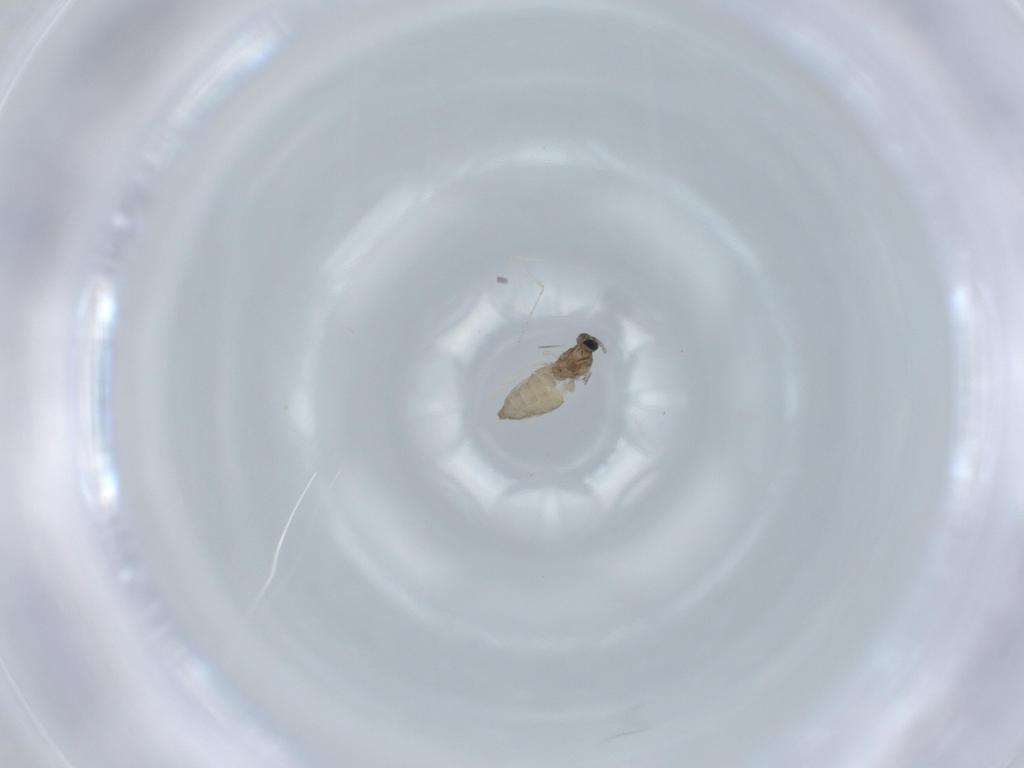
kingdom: Animalia
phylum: Arthropoda
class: Insecta
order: Diptera
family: Cecidomyiidae
